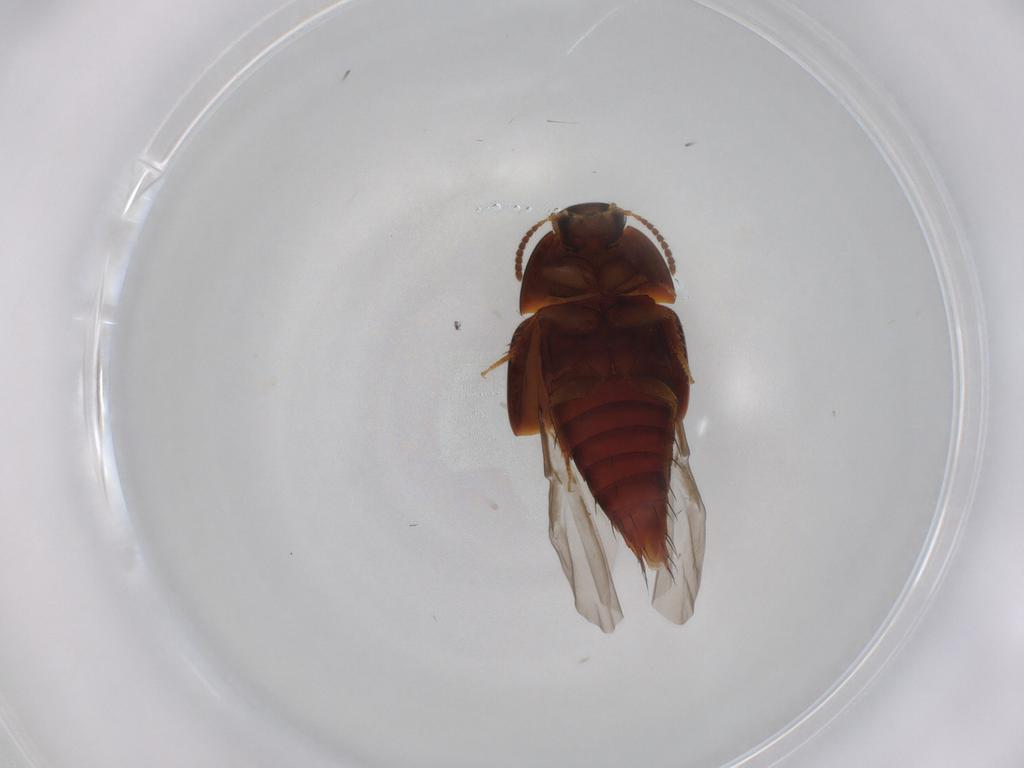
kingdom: Animalia
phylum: Arthropoda
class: Insecta
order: Coleoptera
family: Staphylinidae
